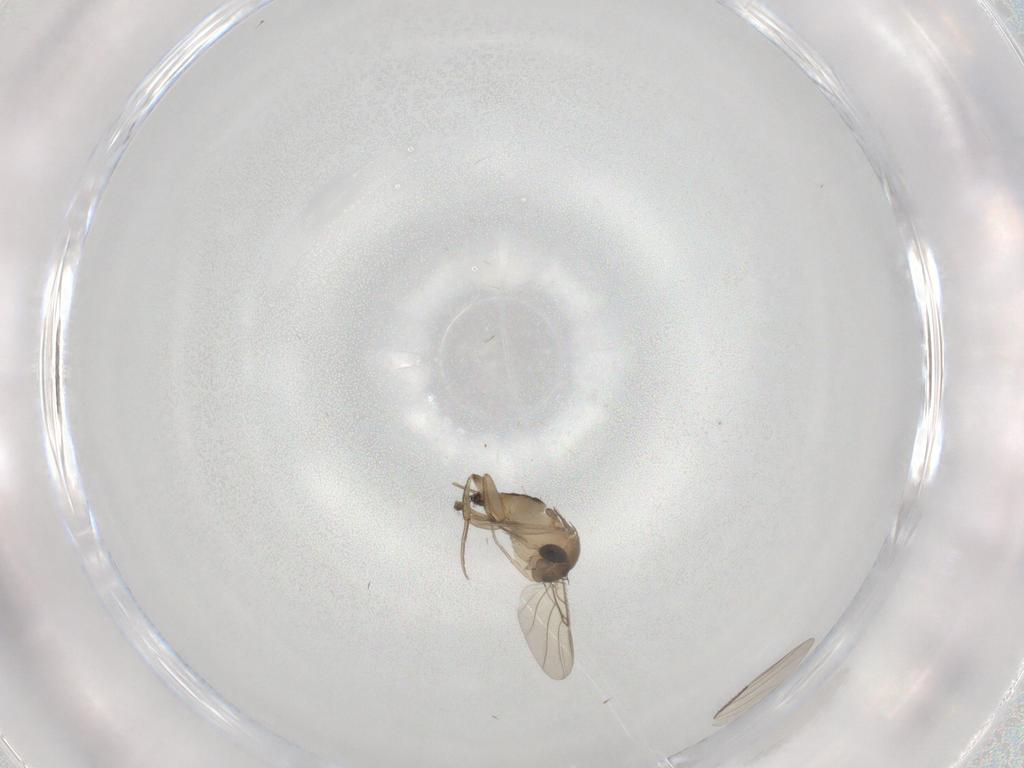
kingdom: Animalia
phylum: Arthropoda
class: Insecta
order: Diptera
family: Phoridae
